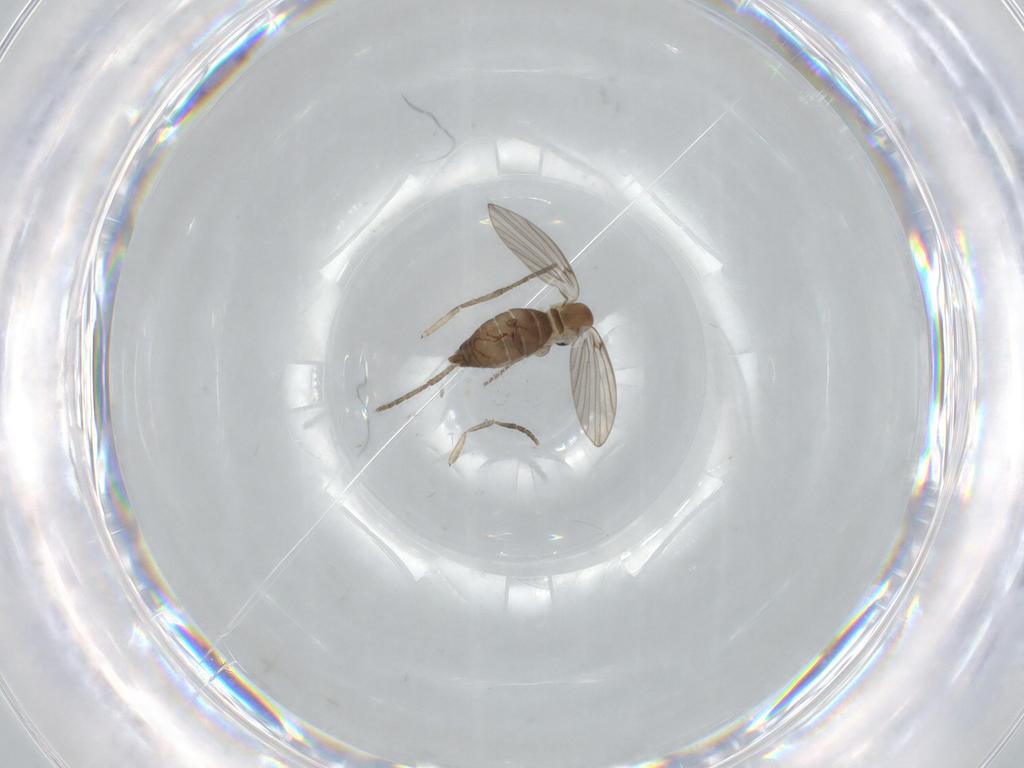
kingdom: Animalia
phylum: Arthropoda
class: Insecta
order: Diptera
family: Psychodidae
